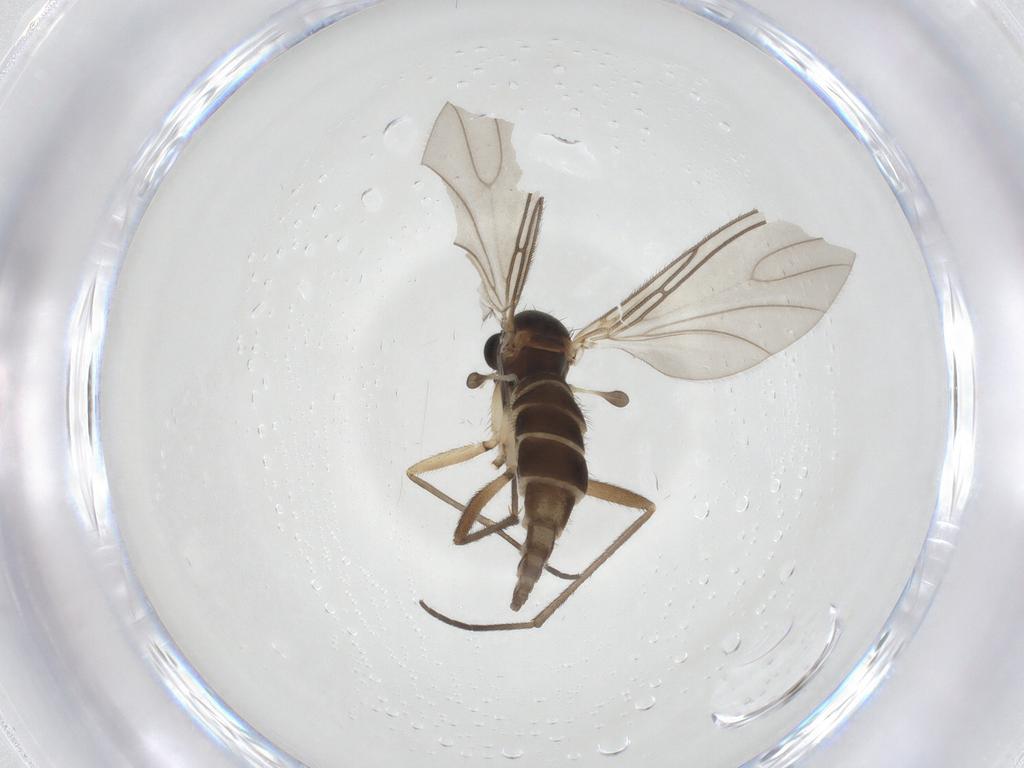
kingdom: Animalia
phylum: Arthropoda
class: Insecta
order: Diptera
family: Sciaridae
